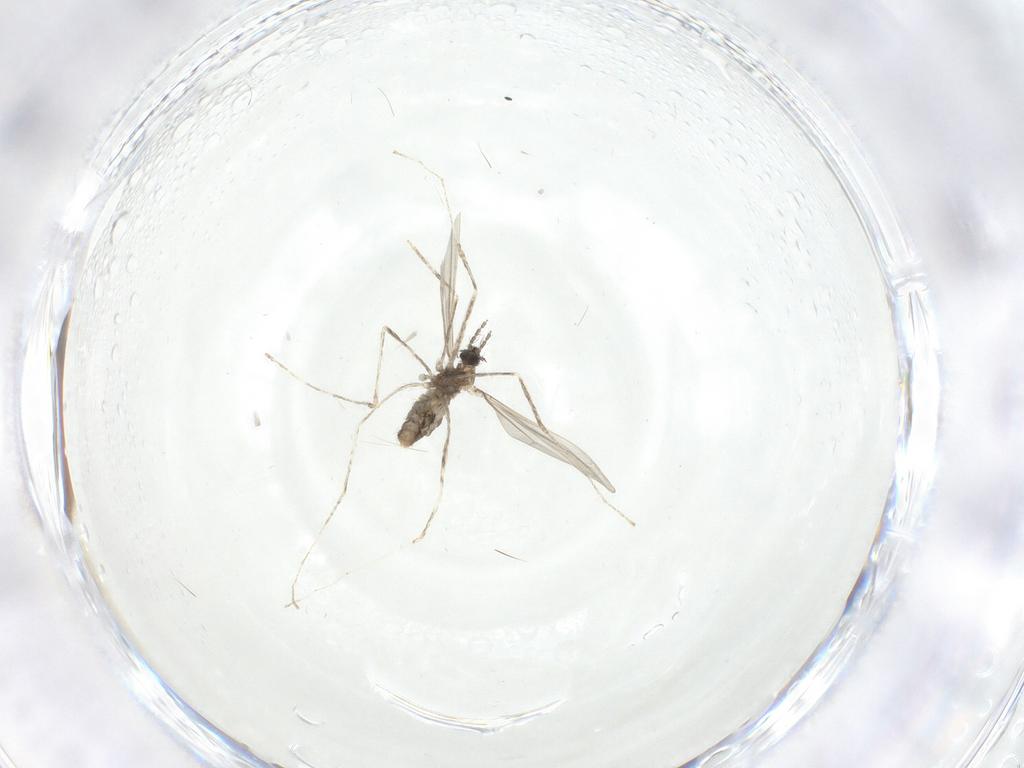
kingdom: Animalia
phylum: Arthropoda
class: Insecta
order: Diptera
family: Cecidomyiidae
